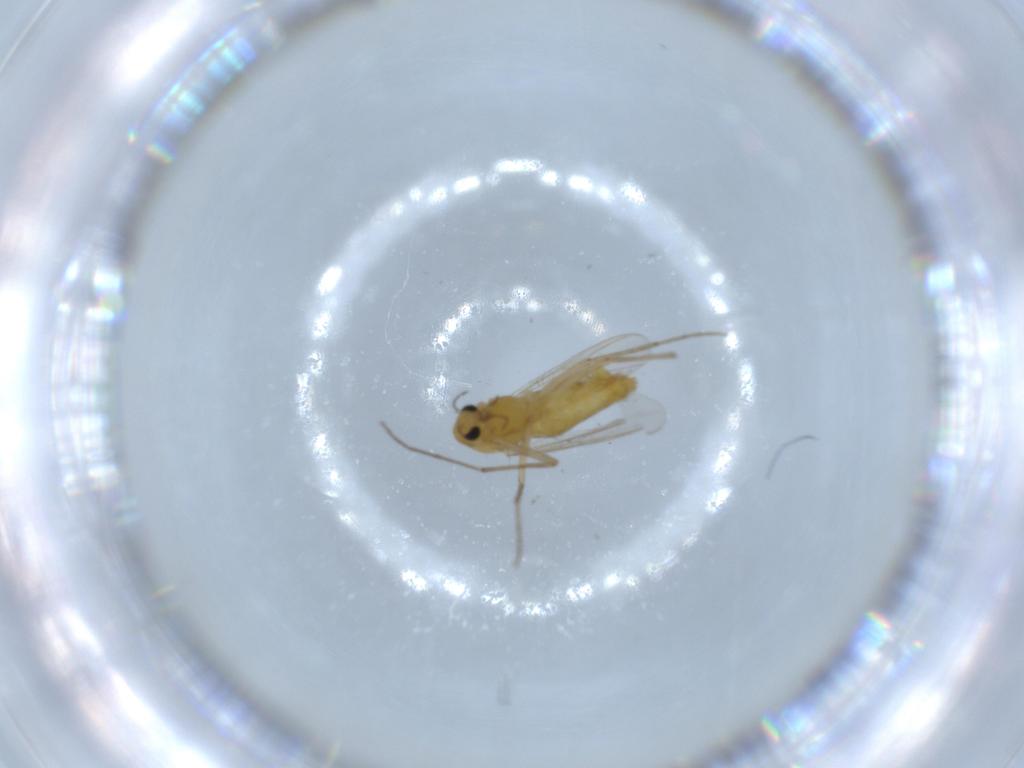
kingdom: Animalia
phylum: Arthropoda
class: Insecta
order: Diptera
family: Chironomidae
